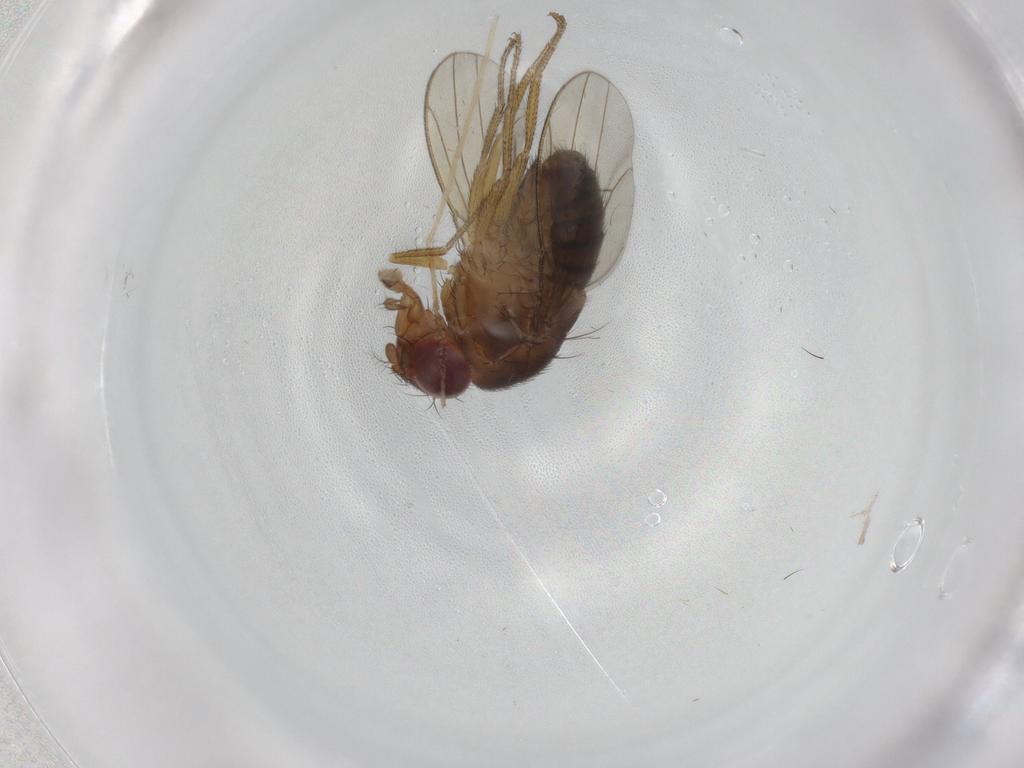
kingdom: Animalia
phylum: Arthropoda
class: Insecta
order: Diptera
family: Drosophilidae
